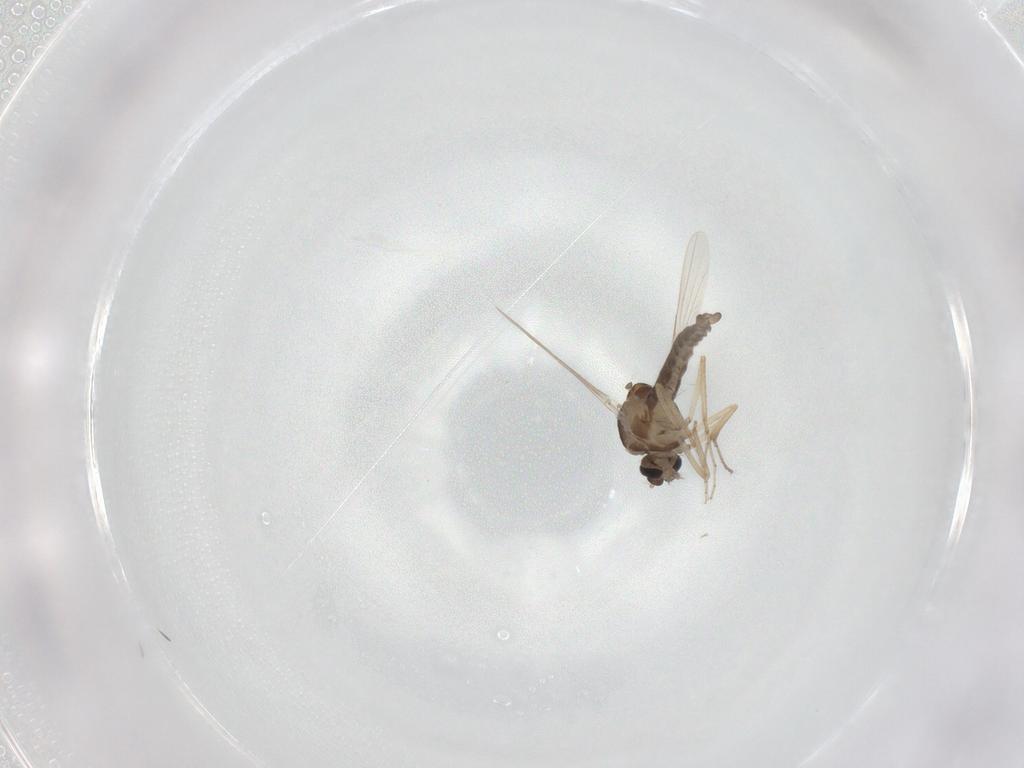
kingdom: Animalia
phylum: Arthropoda
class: Insecta
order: Diptera
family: Ceratopogonidae
